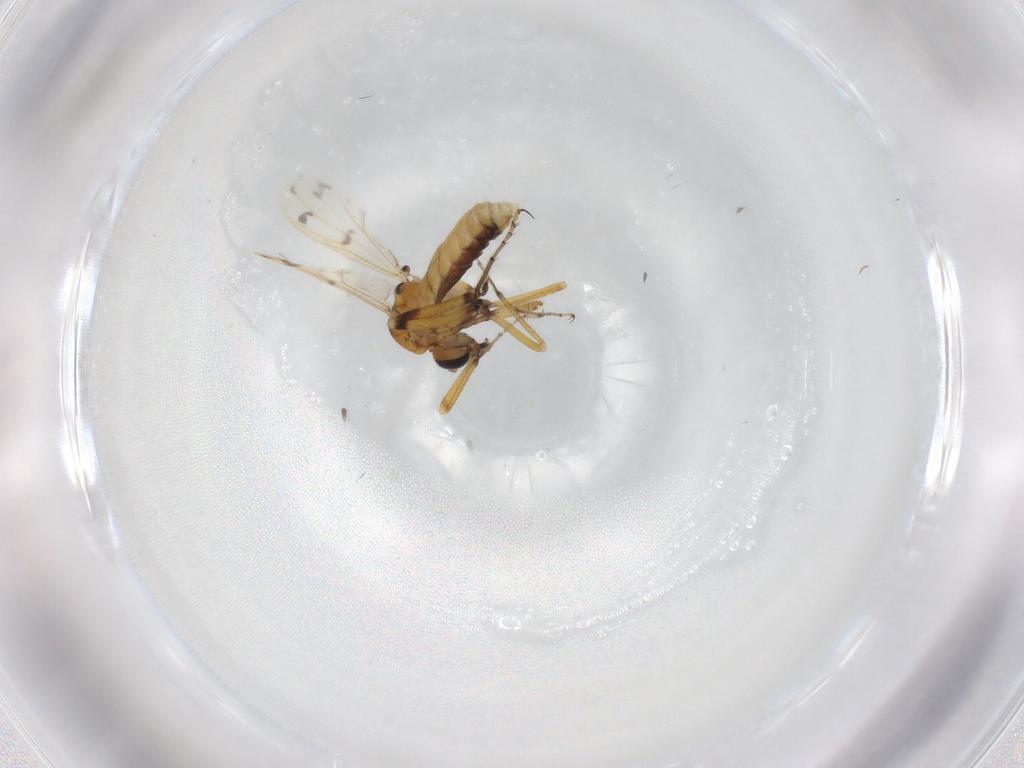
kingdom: Animalia
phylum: Arthropoda
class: Insecta
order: Diptera
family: Ceratopogonidae
